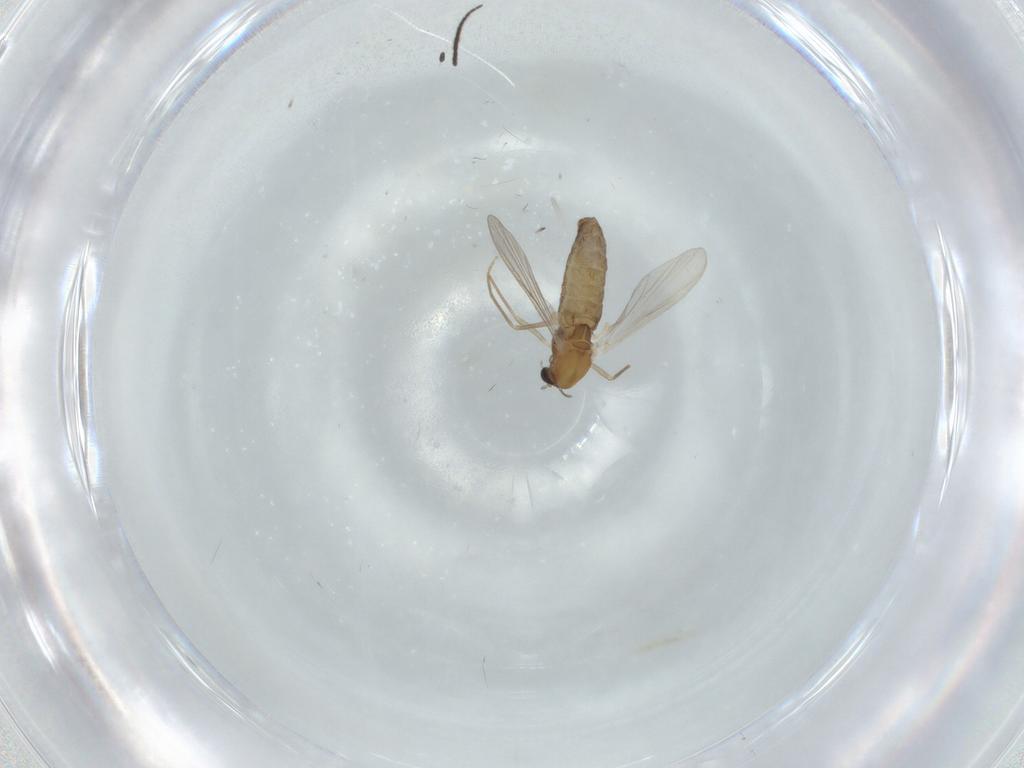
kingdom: Animalia
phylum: Arthropoda
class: Insecta
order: Diptera
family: Chironomidae
